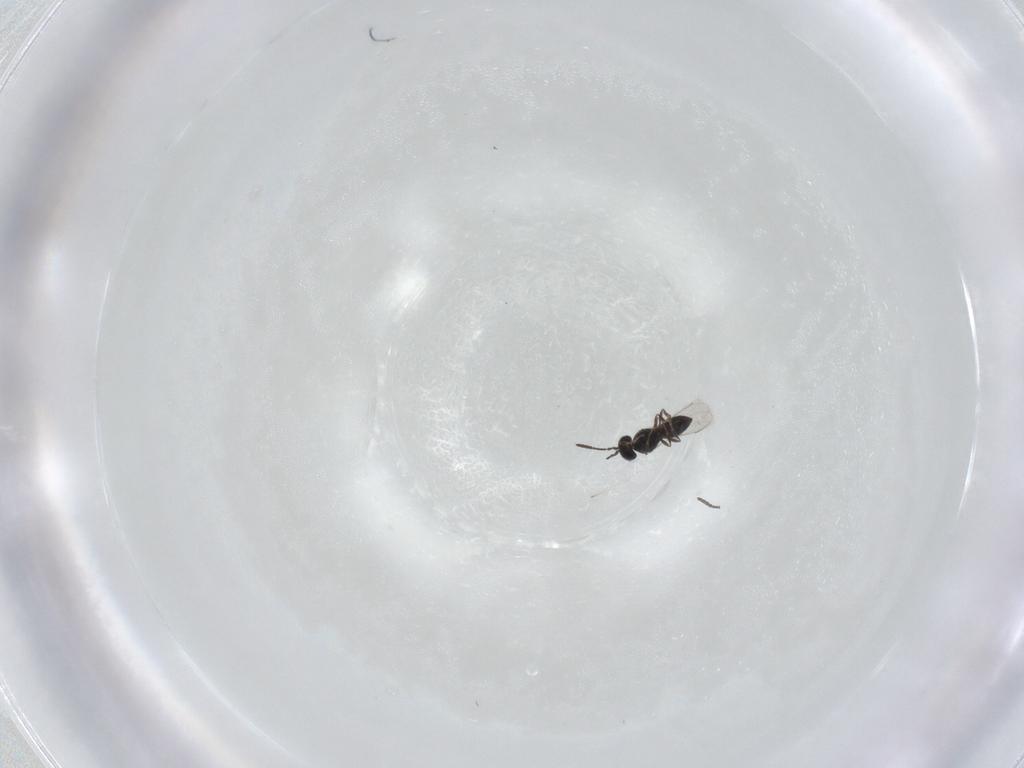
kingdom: Animalia
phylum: Arthropoda
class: Insecta
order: Hymenoptera
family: Scelionidae
